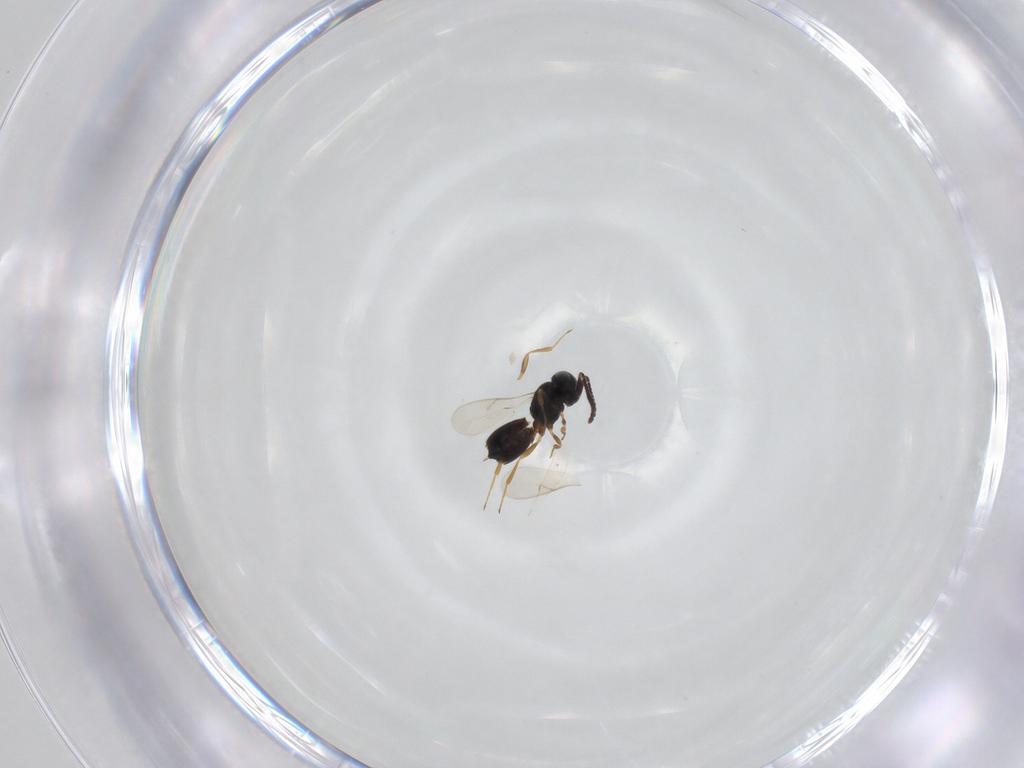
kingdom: Animalia
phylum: Arthropoda
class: Insecta
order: Hymenoptera
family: Scelionidae
